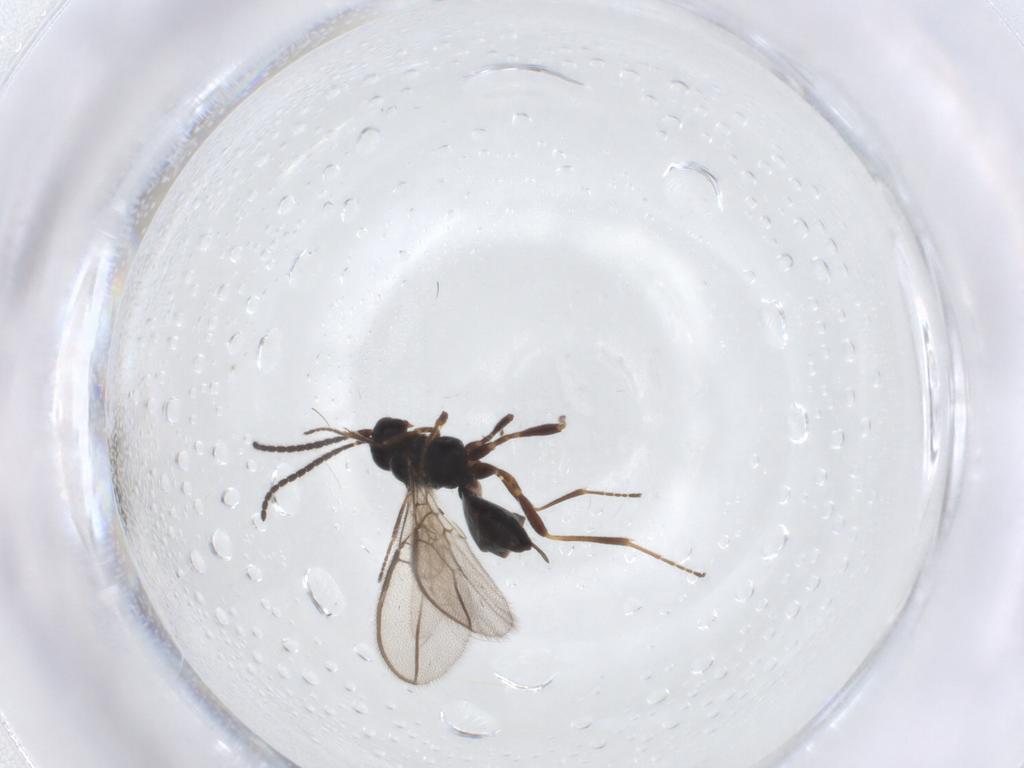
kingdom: Animalia
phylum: Arthropoda
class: Insecta
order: Hymenoptera
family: Braconidae
